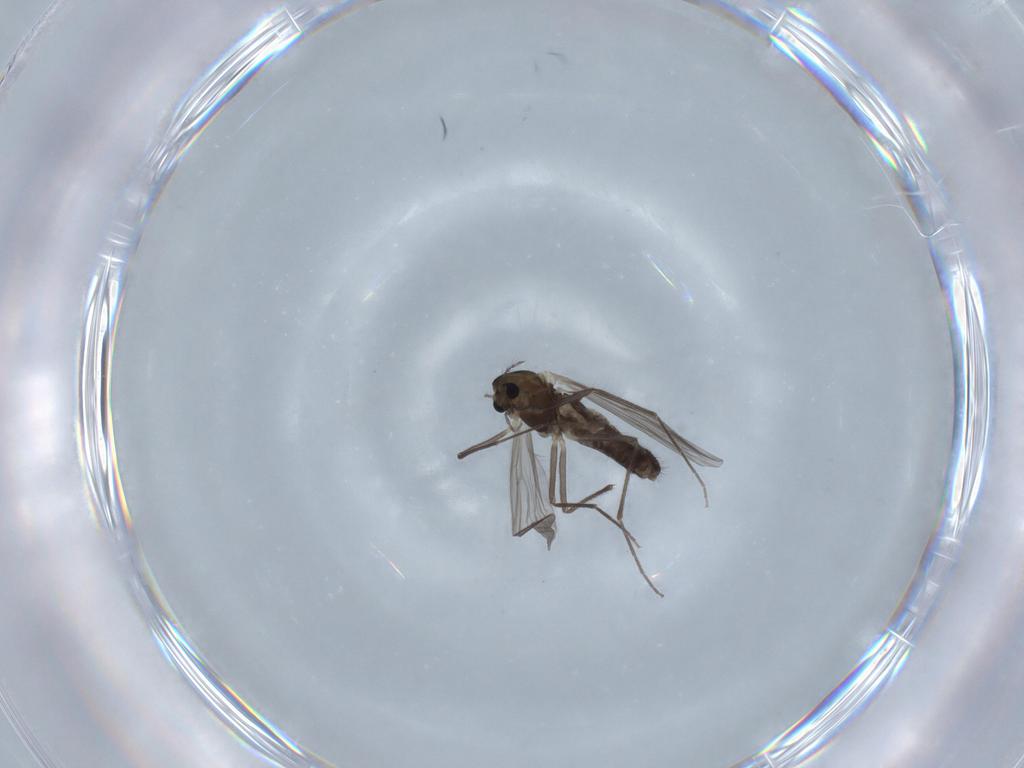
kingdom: Animalia
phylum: Arthropoda
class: Insecta
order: Diptera
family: Chironomidae
